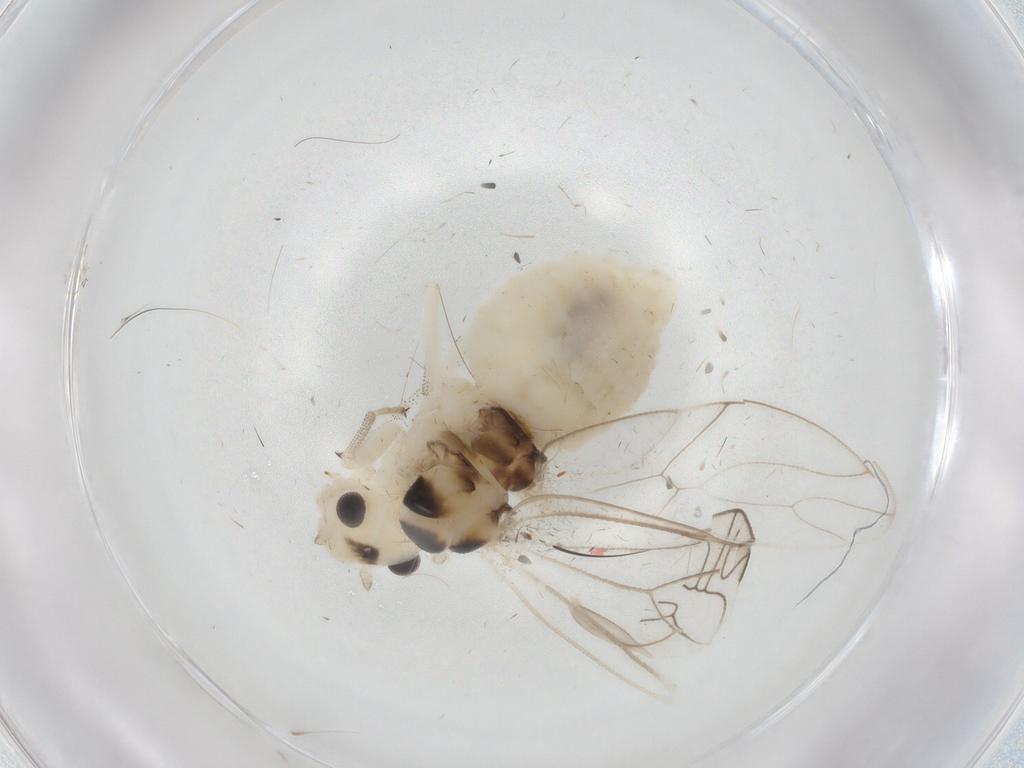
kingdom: Animalia
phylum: Arthropoda
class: Insecta
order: Psocodea
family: Amphipsocidae
